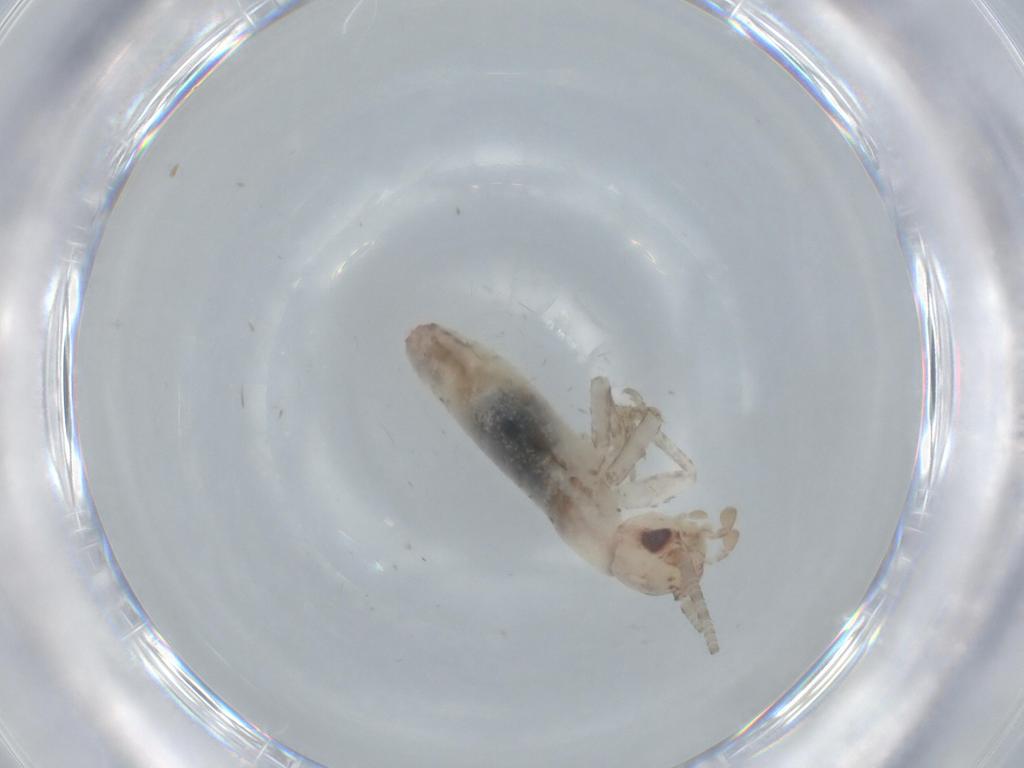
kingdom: Animalia
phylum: Arthropoda
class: Insecta
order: Orthoptera
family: Mogoplistidae
